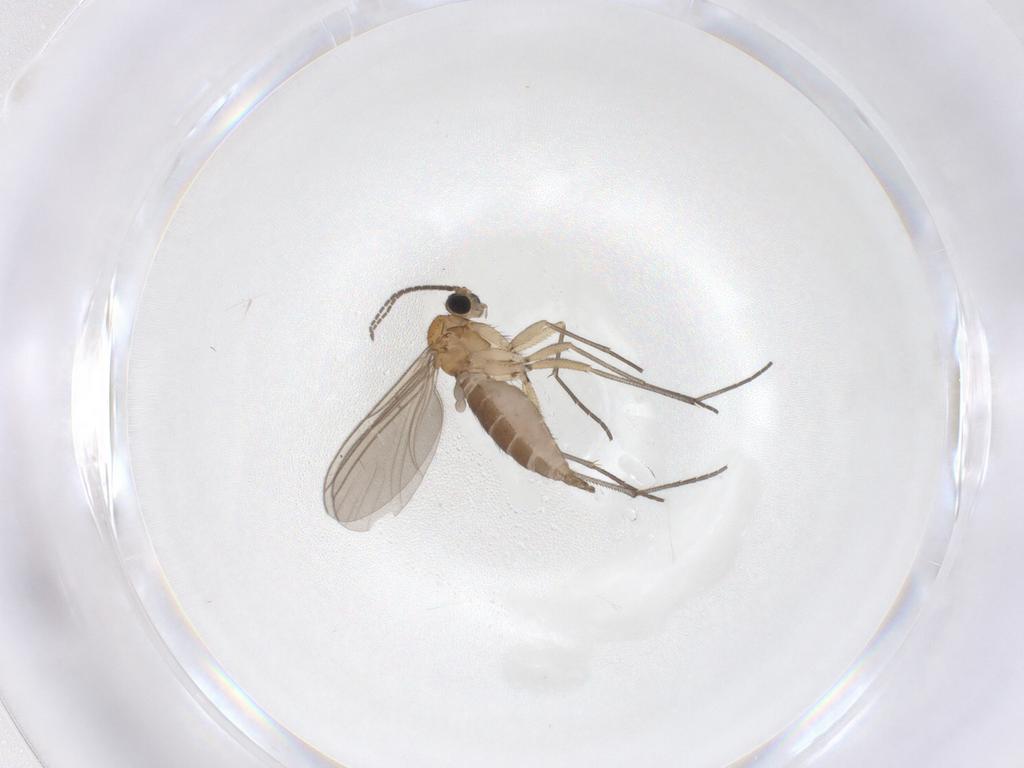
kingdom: Animalia
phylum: Arthropoda
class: Insecta
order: Diptera
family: Sciaridae
